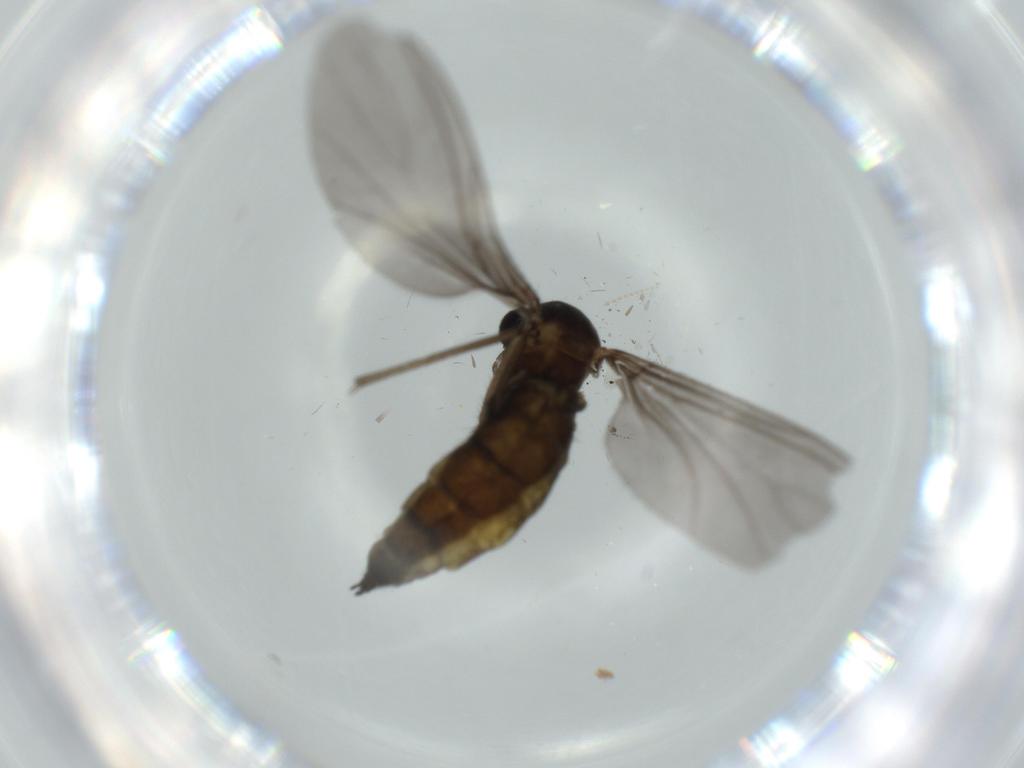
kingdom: Animalia
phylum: Arthropoda
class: Insecta
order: Diptera
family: Sciaridae
